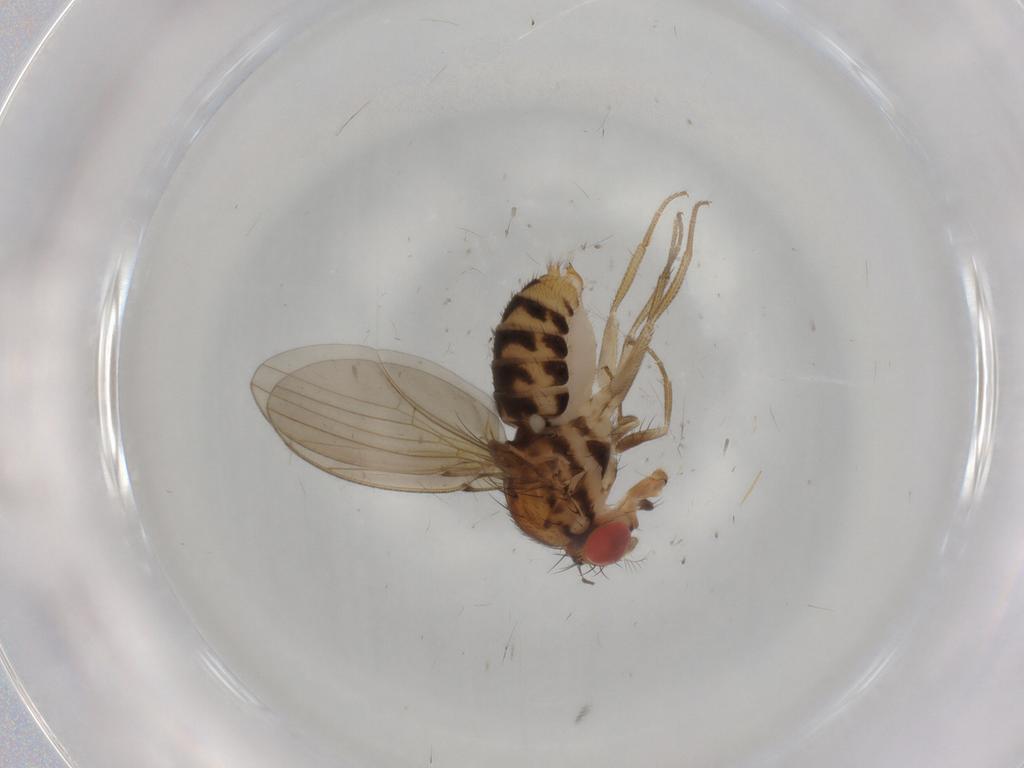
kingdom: Animalia
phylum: Arthropoda
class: Insecta
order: Diptera
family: Drosophilidae
